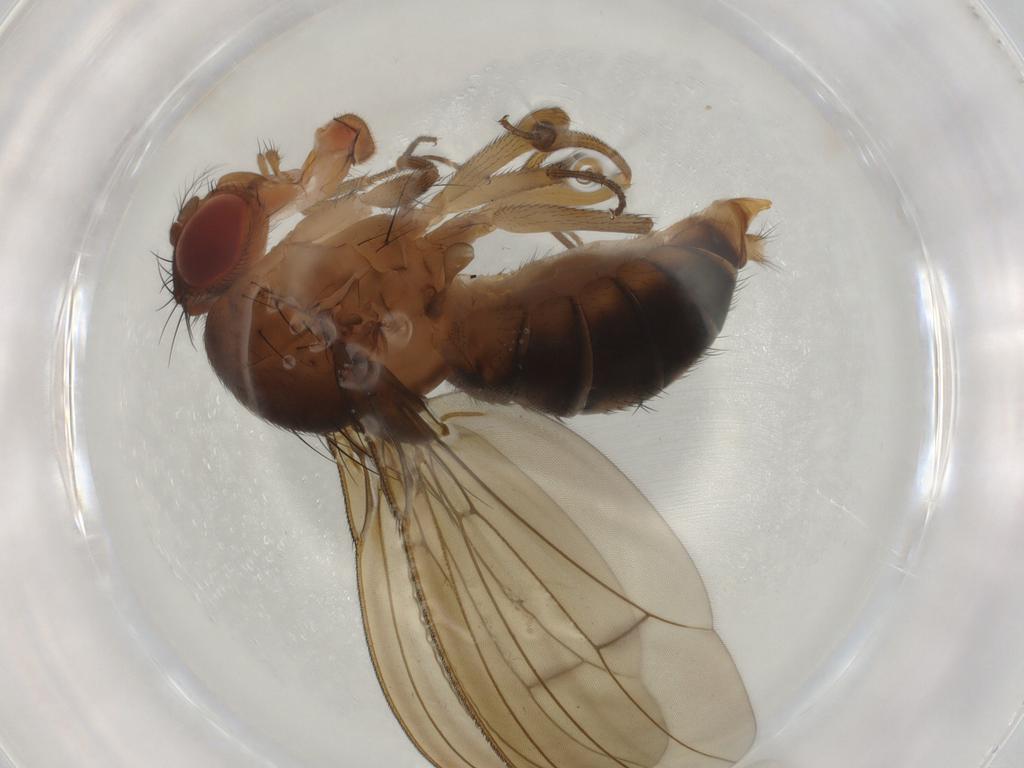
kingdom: Animalia
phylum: Arthropoda
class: Insecta
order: Diptera
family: Drosophilidae
